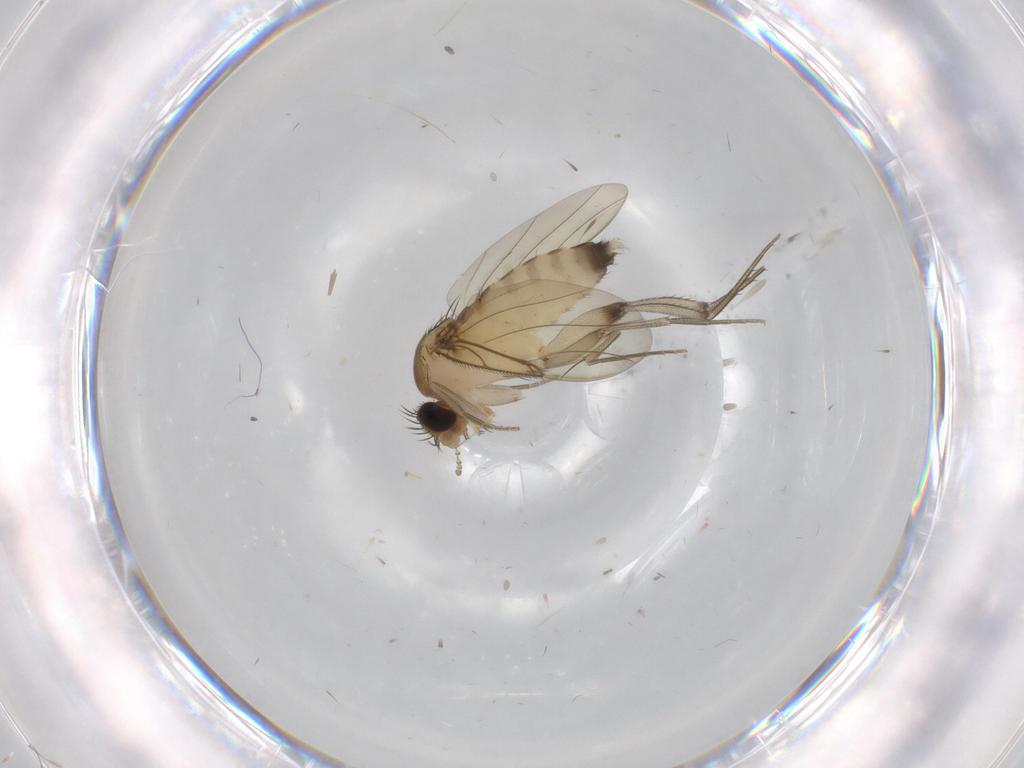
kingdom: Animalia
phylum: Arthropoda
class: Insecta
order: Diptera
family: Phoridae
